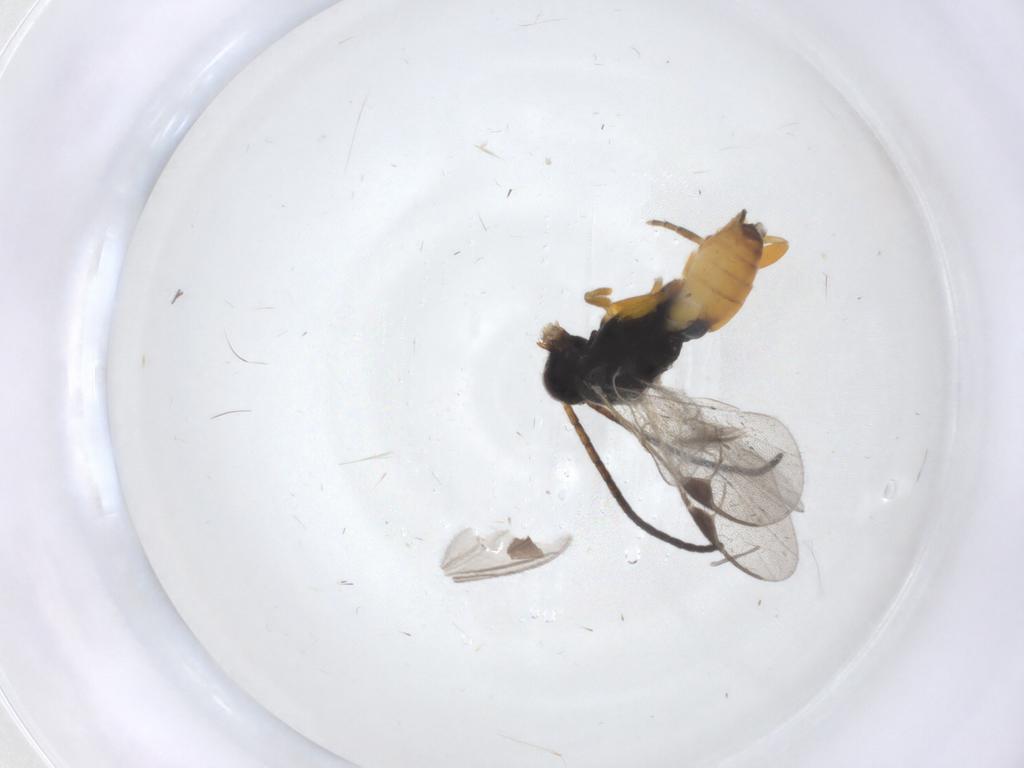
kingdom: Animalia
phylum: Arthropoda
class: Insecta
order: Hymenoptera
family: Braconidae
